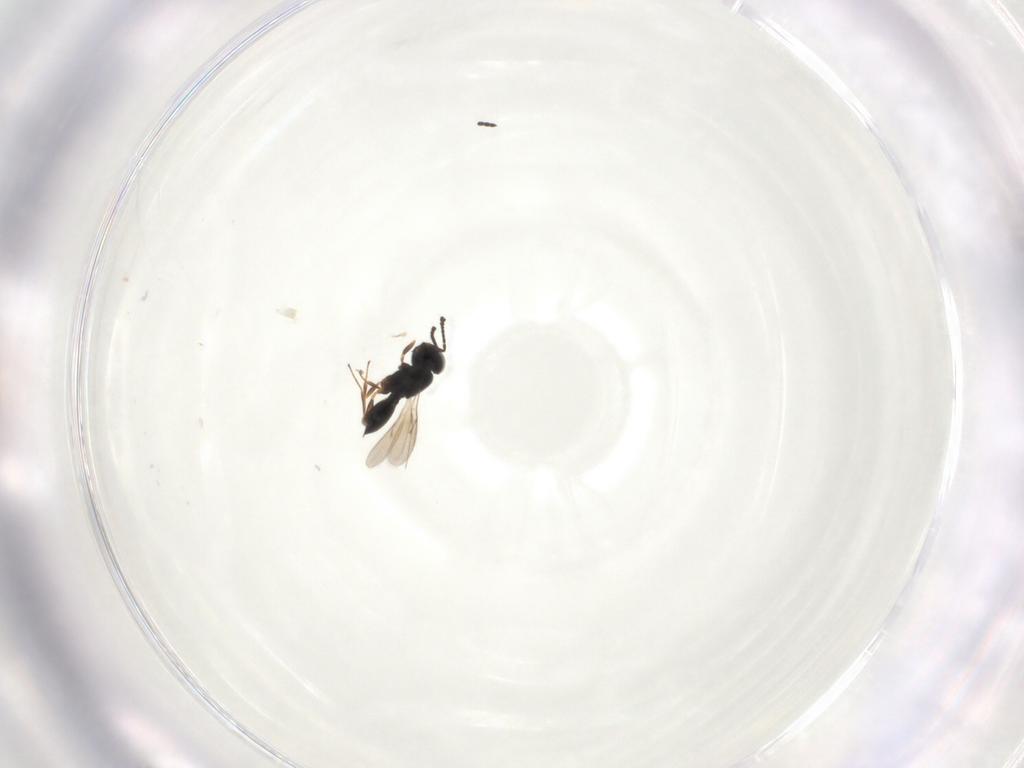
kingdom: Animalia
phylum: Arthropoda
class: Insecta
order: Hymenoptera
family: Scelionidae
